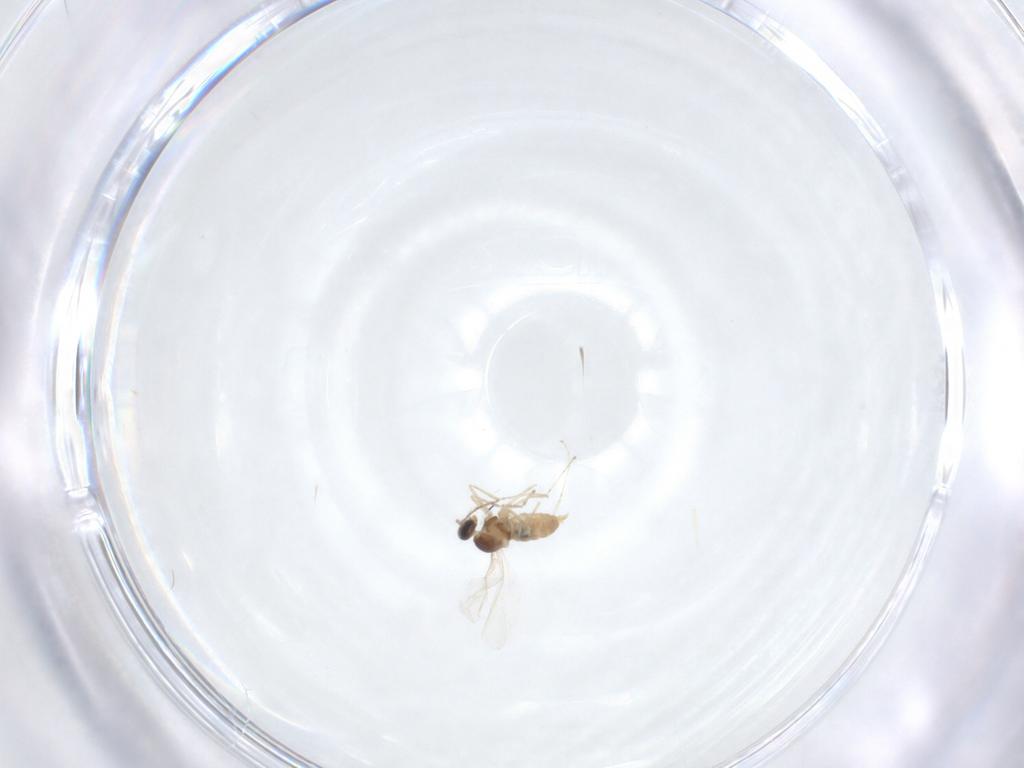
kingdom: Animalia
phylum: Arthropoda
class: Insecta
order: Diptera
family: Cecidomyiidae
